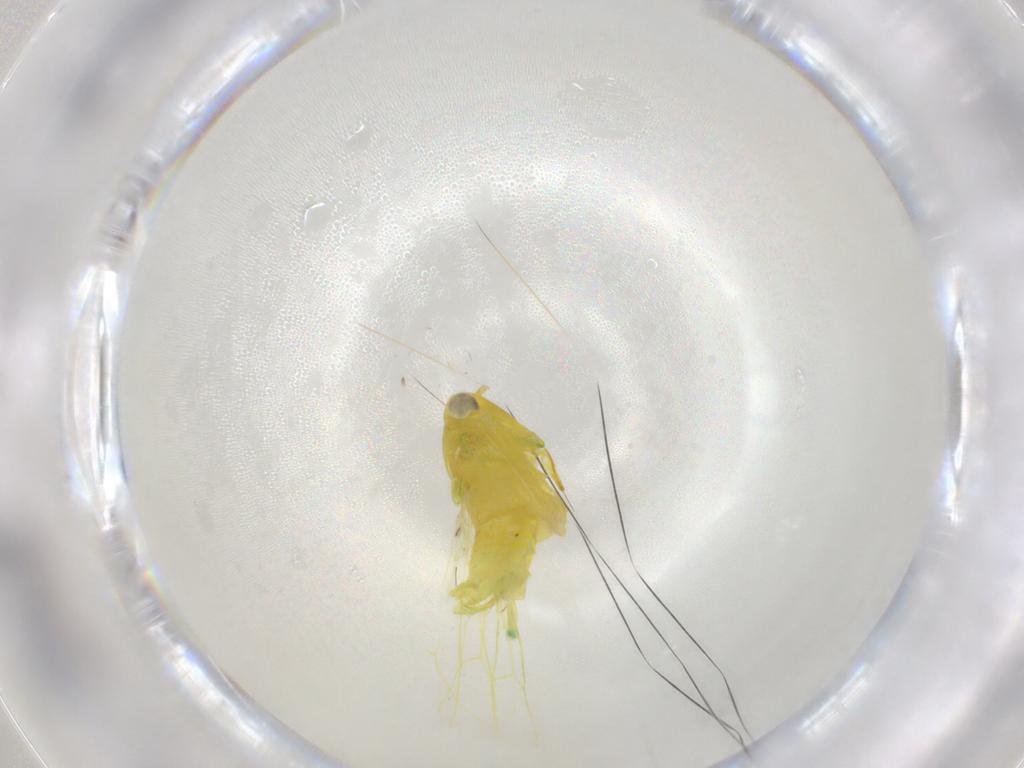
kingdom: Animalia
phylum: Arthropoda
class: Insecta
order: Hemiptera
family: Cicadellidae
